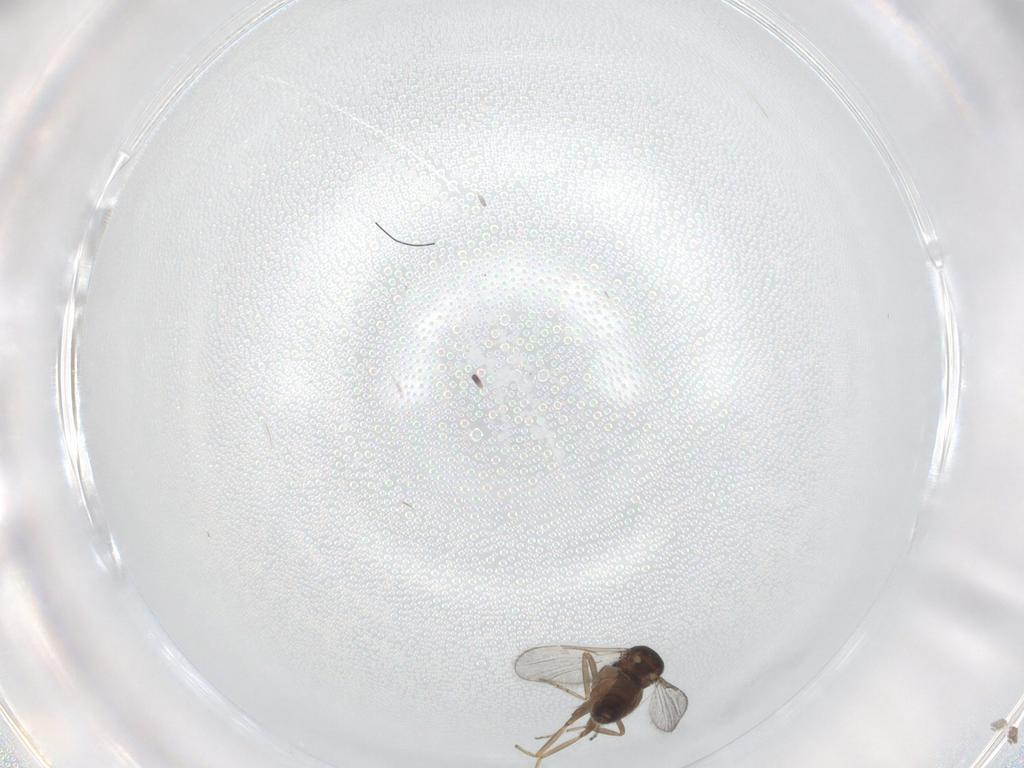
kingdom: Animalia
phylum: Arthropoda
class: Insecta
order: Diptera
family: Ceratopogonidae
